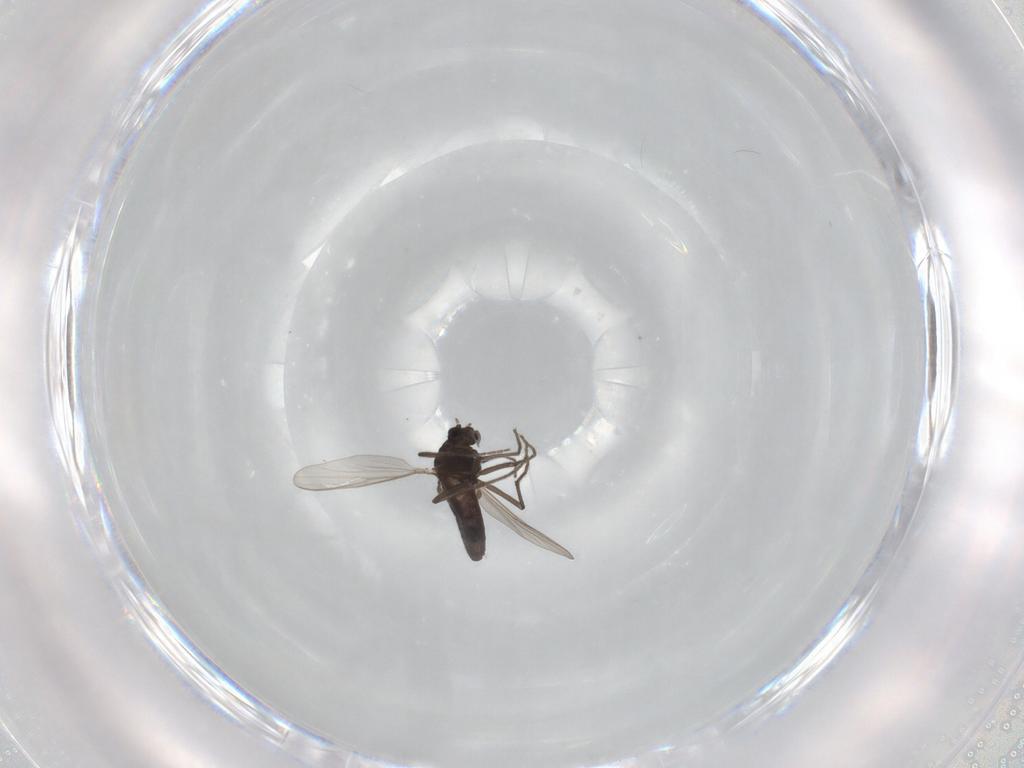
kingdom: Animalia
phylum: Arthropoda
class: Insecta
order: Diptera
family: Chironomidae
